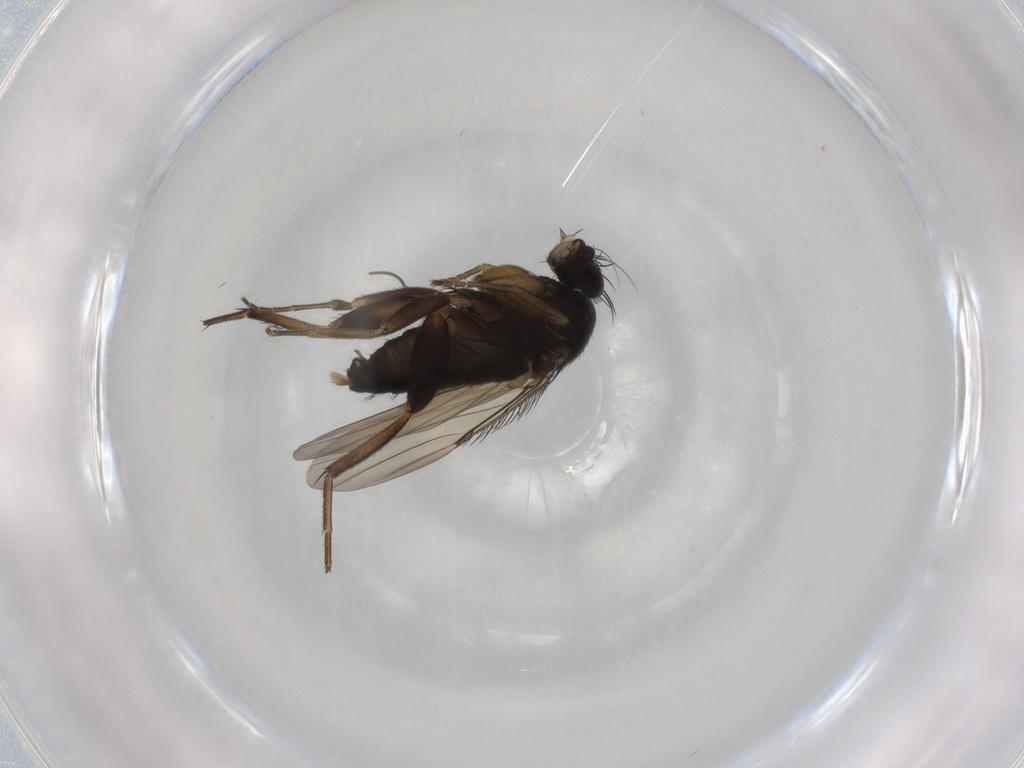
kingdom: Animalia
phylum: Arthropoda
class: Insecta
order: Diptera
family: Phoridae
